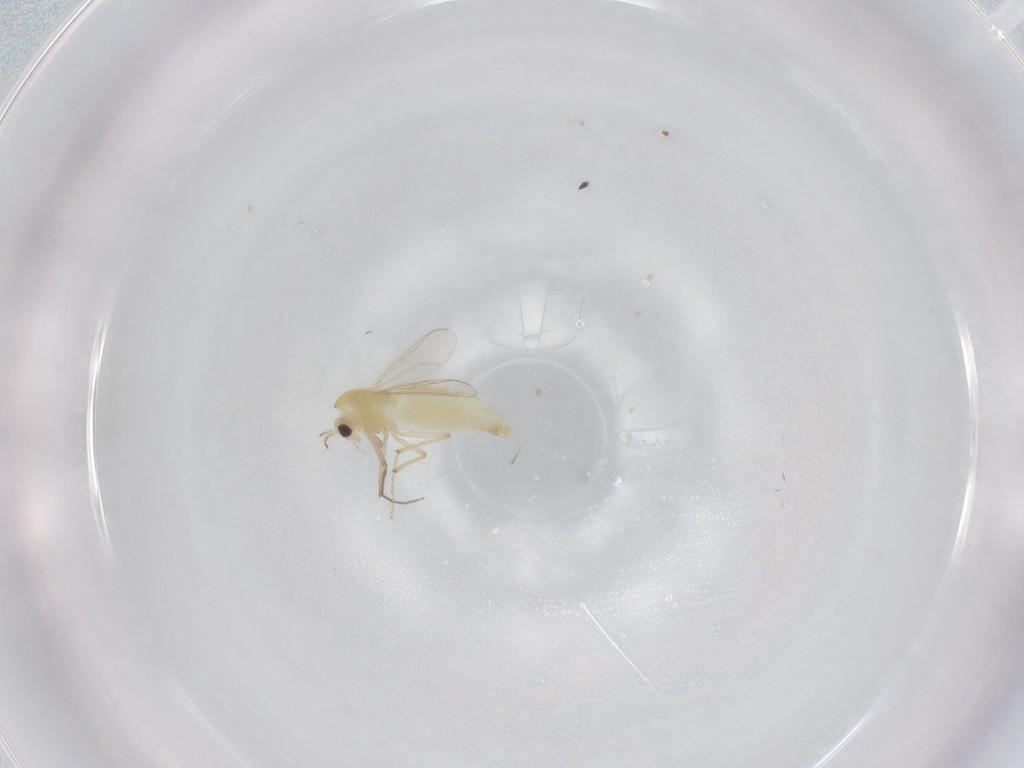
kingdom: Animalia
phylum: Arthropoda
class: Insecta
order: Diptera
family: Chironomidae
